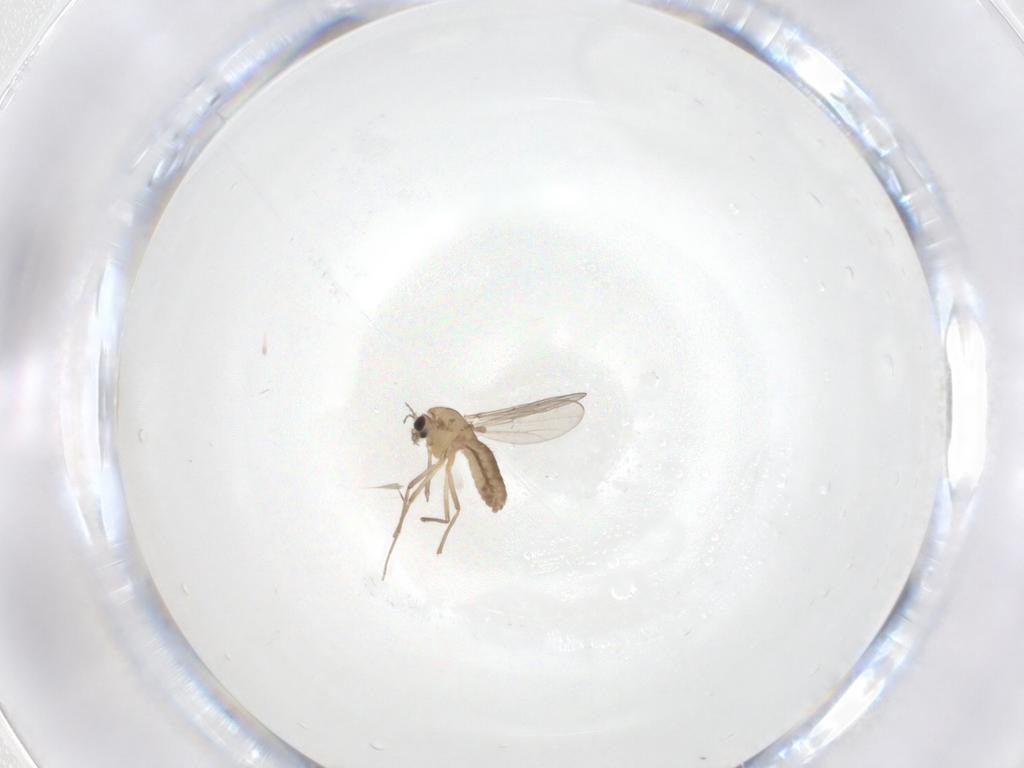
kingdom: Animalia
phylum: Arthropoda
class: Insecta
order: Diptera
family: Chironomidae
